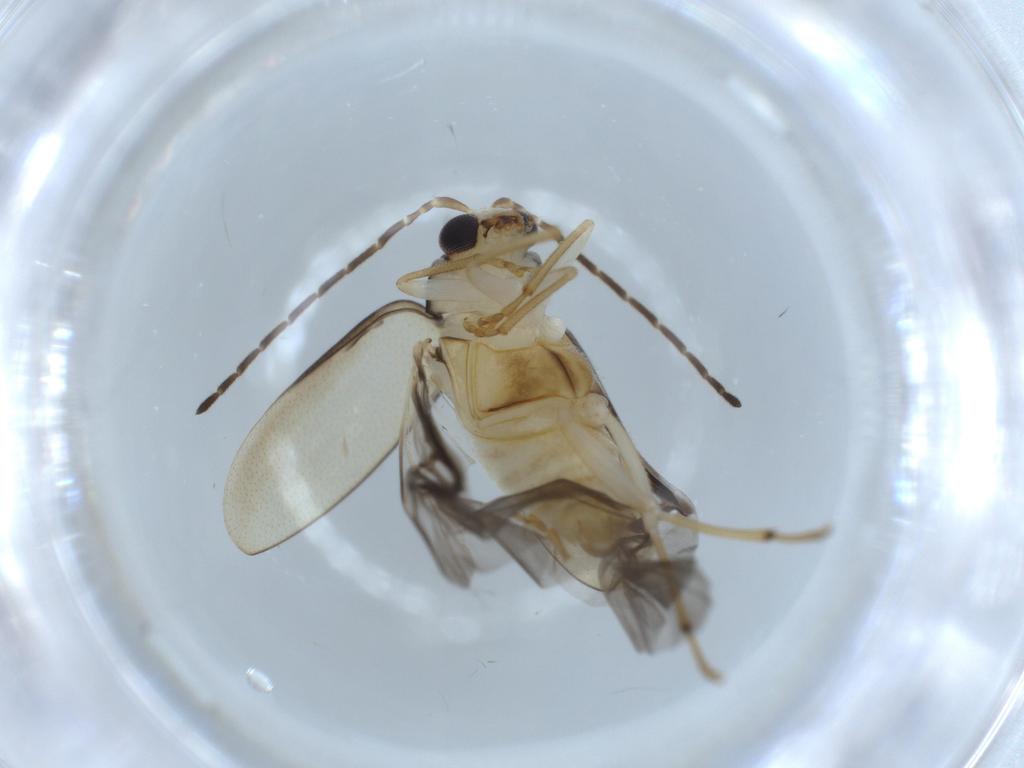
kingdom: Animalia
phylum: Arthropoda
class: Insecta
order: Coleoptera
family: Chrysomelidae
